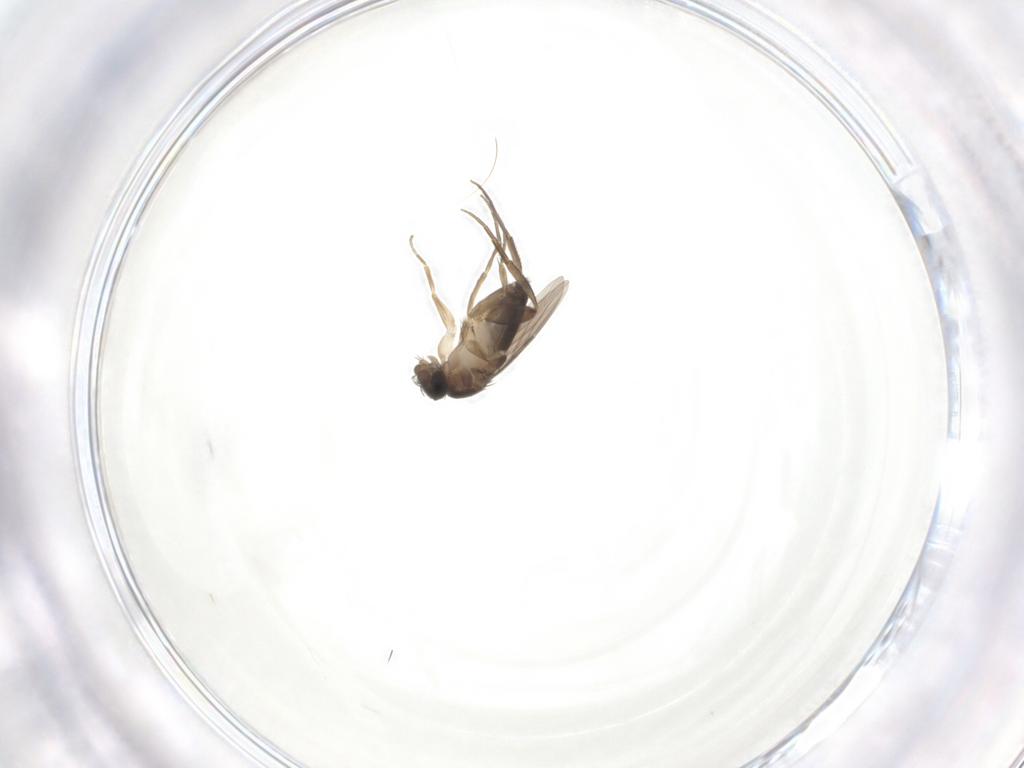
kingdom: Animalia
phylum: Arthropoda
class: Insecta
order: Diptera
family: Phoridae
